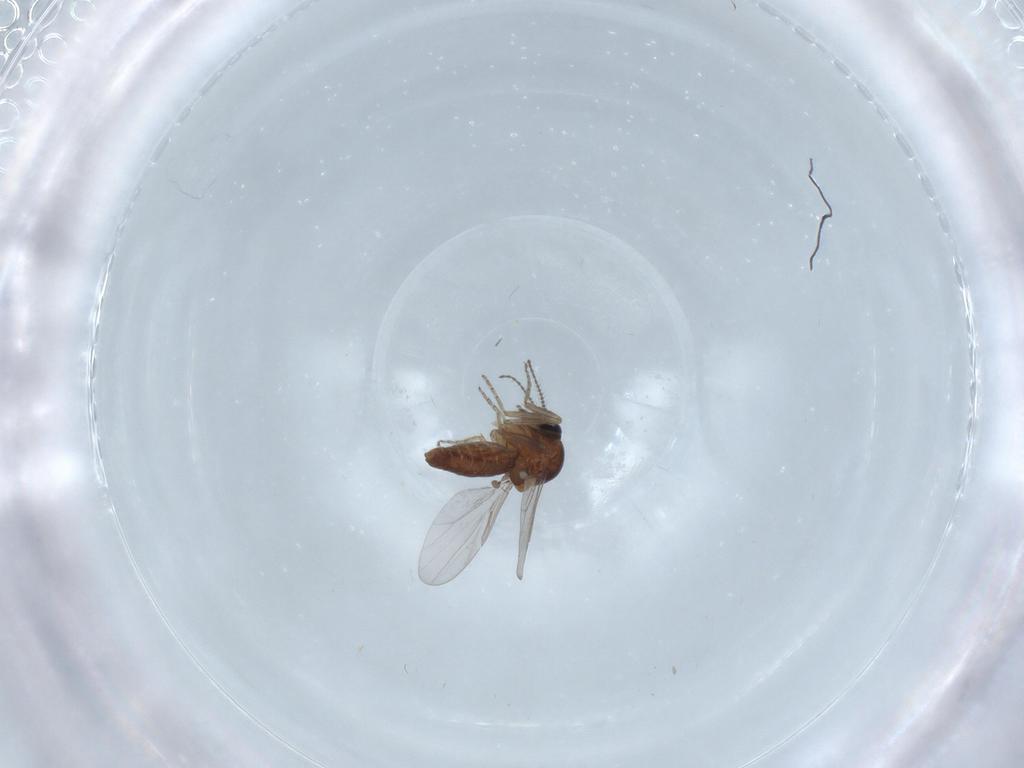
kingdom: Animalia
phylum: Arthropoda
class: Insecta
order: Diptera
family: Ceratopogonidae
